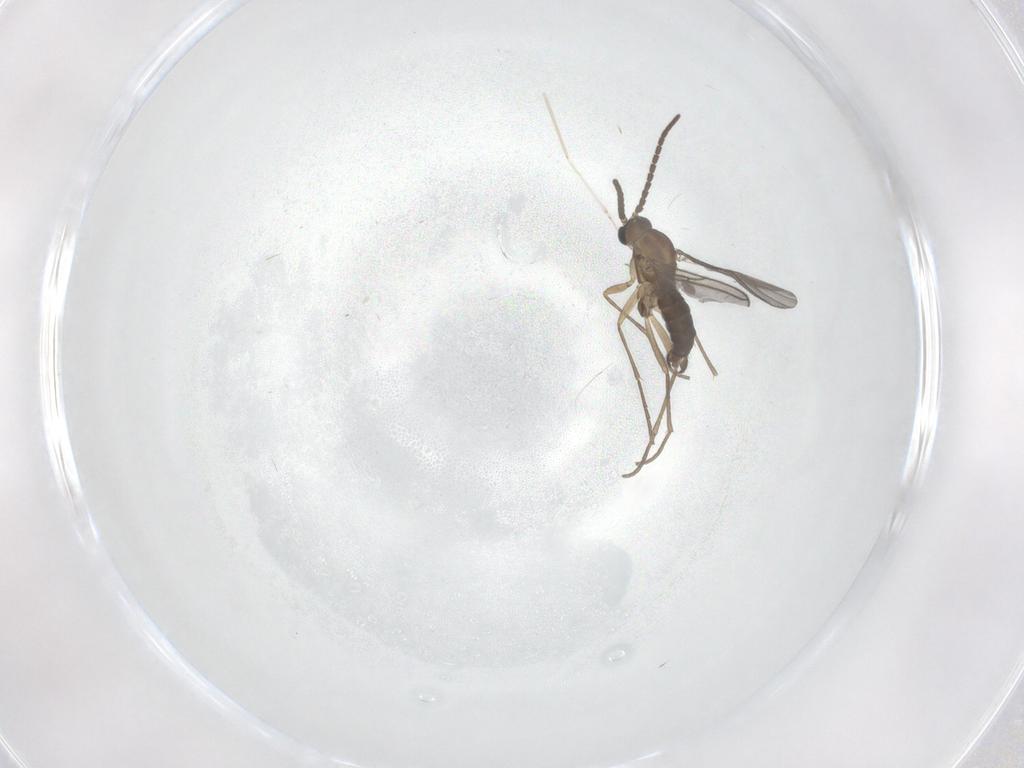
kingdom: Animalia
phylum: Arthropoda
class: Insecta
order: Diptera
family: Sciaridae
